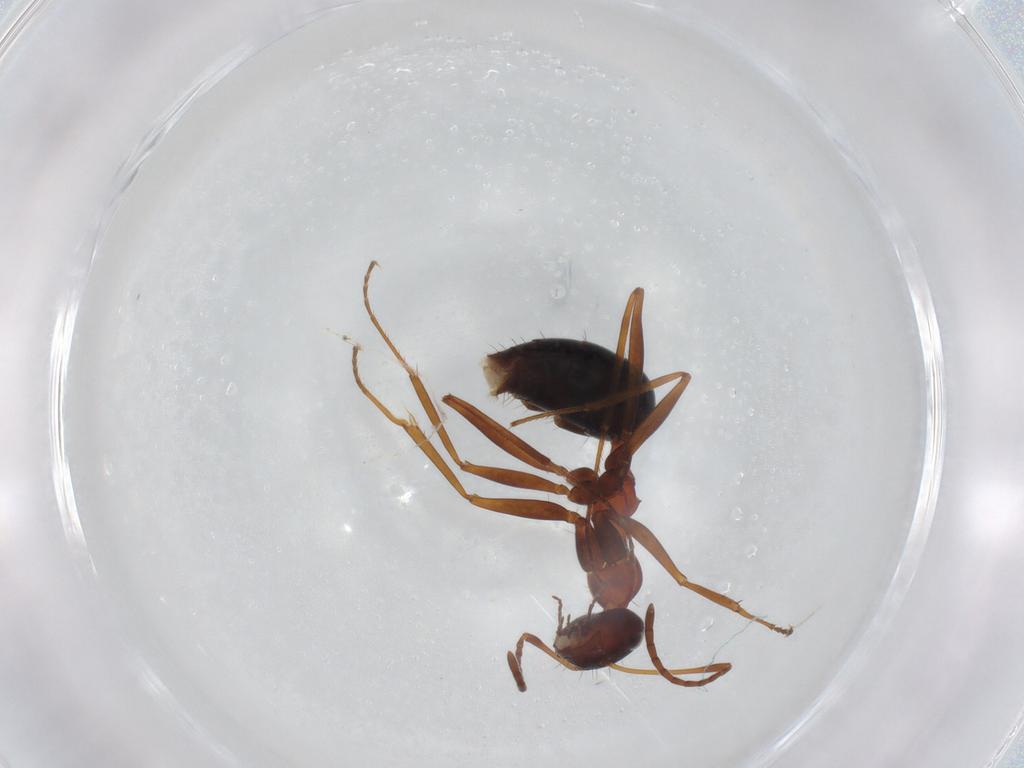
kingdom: Animalia
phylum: Arthropoda
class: Insecta
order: Hymenoptera
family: Formicidae
